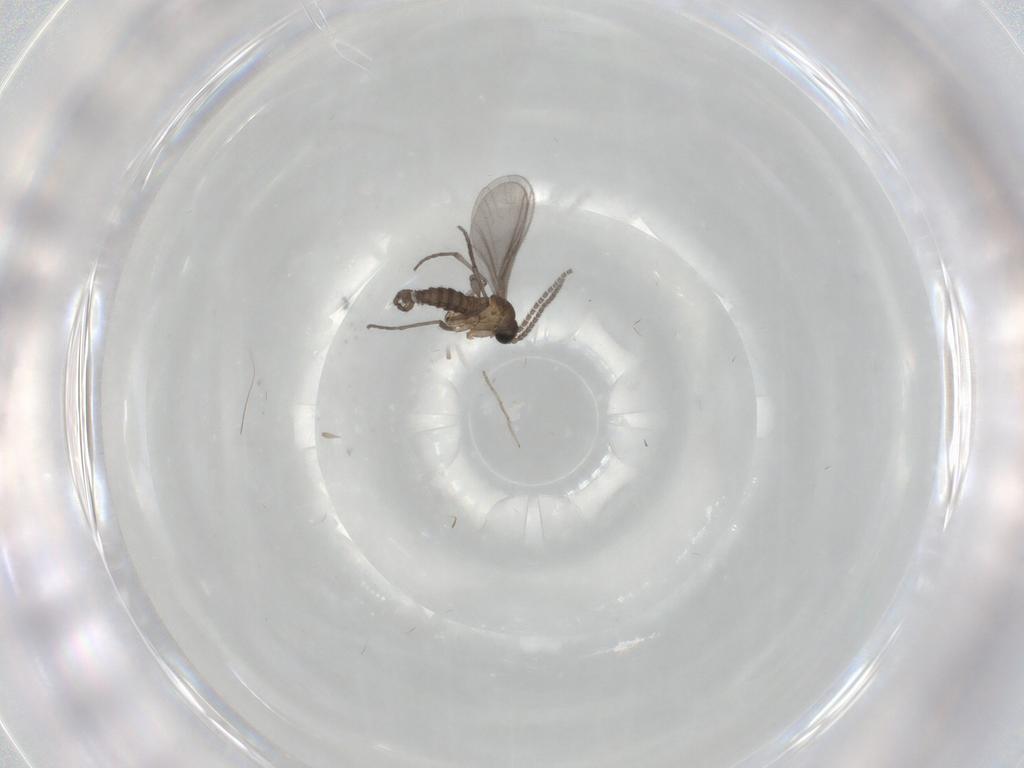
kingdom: Animalia
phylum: Arthropoda
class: Insecta
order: Diptera
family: Sciaridae
